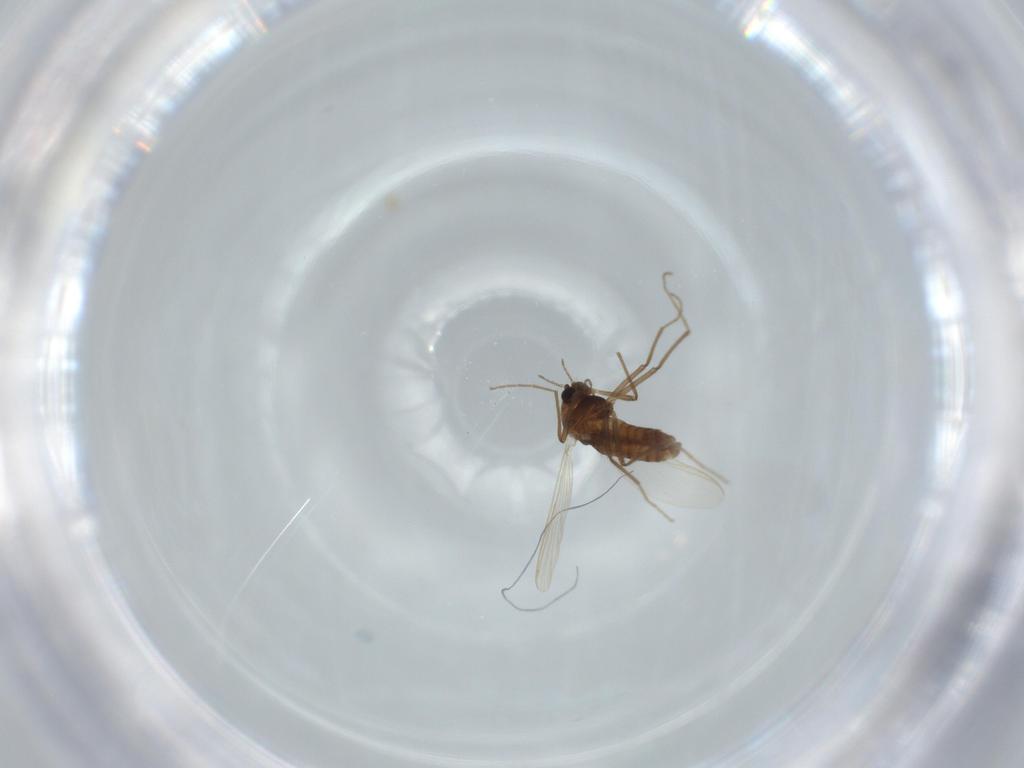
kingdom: Animalia
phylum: Arthropoda
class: Insecta
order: Diptera
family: Chironomidae
